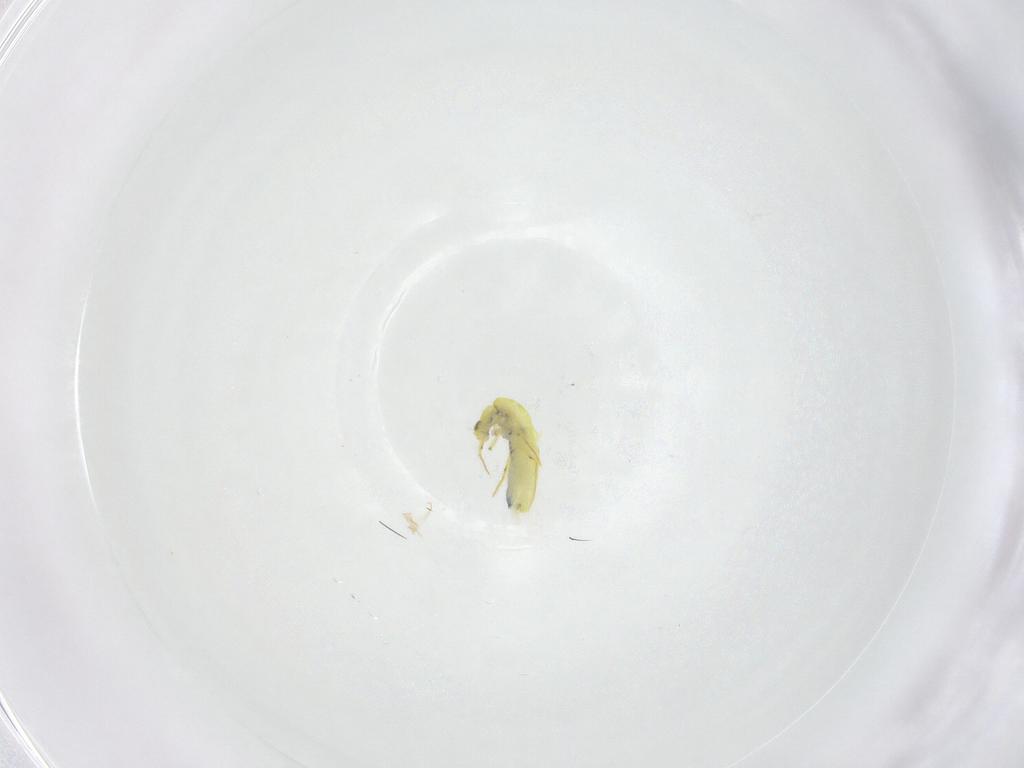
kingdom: Animalia
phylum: Arthropoda
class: Collembola
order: Entomobryomorpha
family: Entomobryidae
